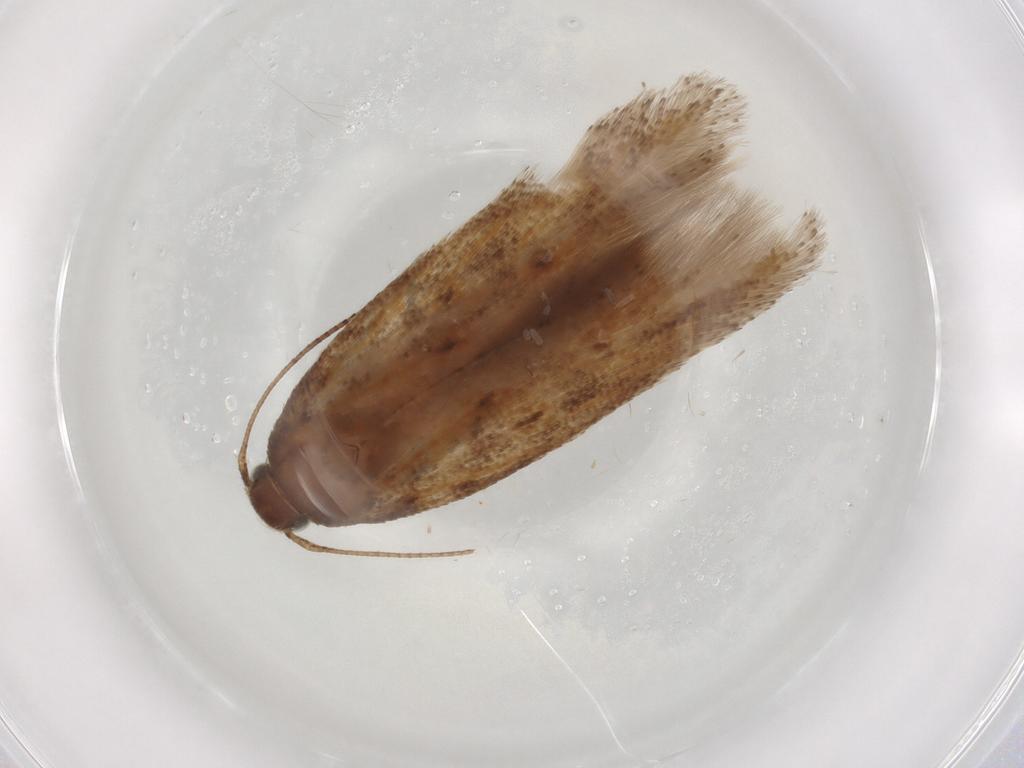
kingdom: Animalia
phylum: Arthropoda
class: Insecta
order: Lepidoptera
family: Gelechiidae
